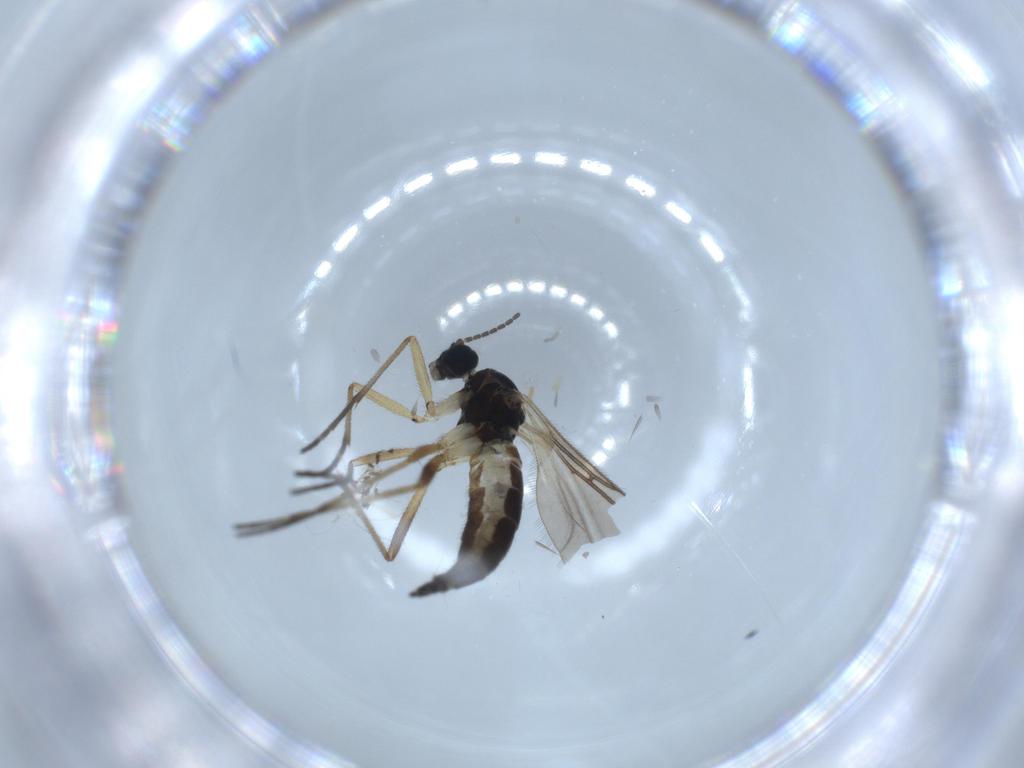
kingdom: Animalia
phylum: Arthropoda
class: Insecta
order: Diptera
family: Sciaridae
